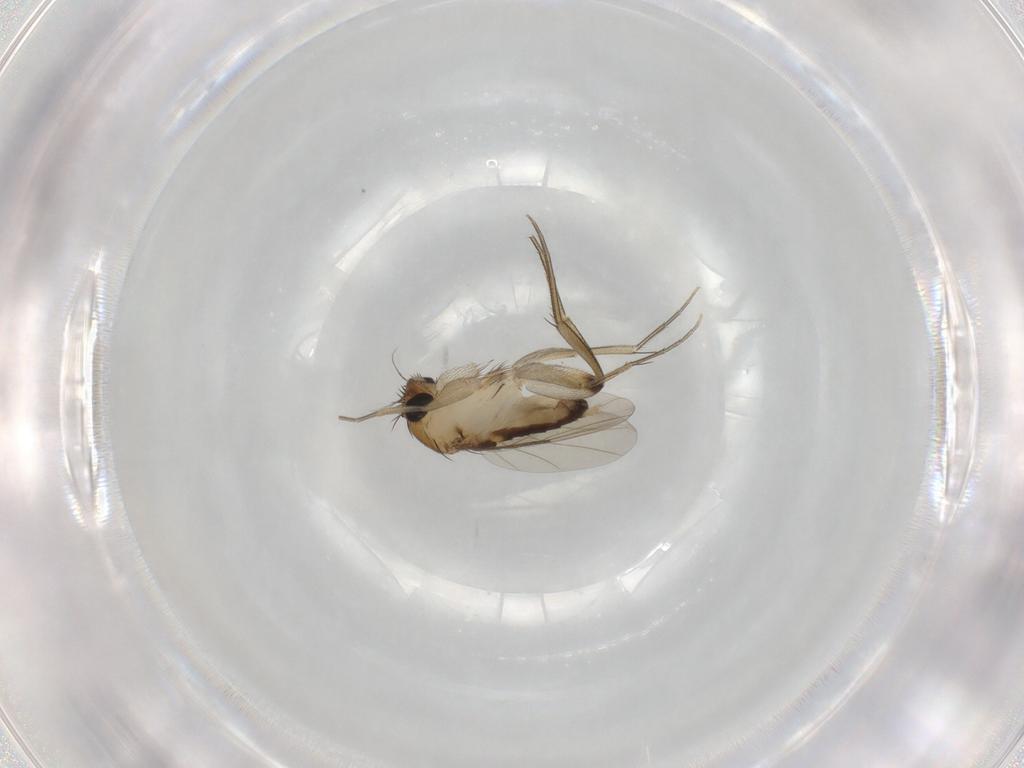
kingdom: Animalia
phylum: Arthropoda
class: Insecta
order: Diptera
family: Phoridae
